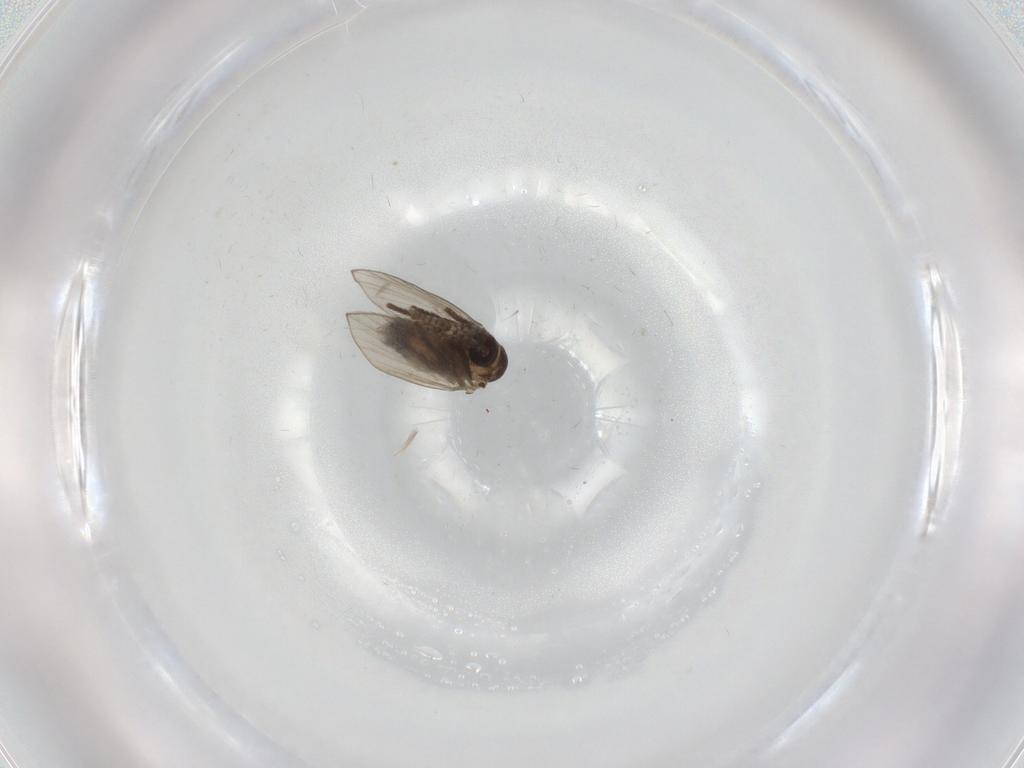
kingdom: Animalia
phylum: Arthropoda
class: Insecta
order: Diptera
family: Psychodidae
